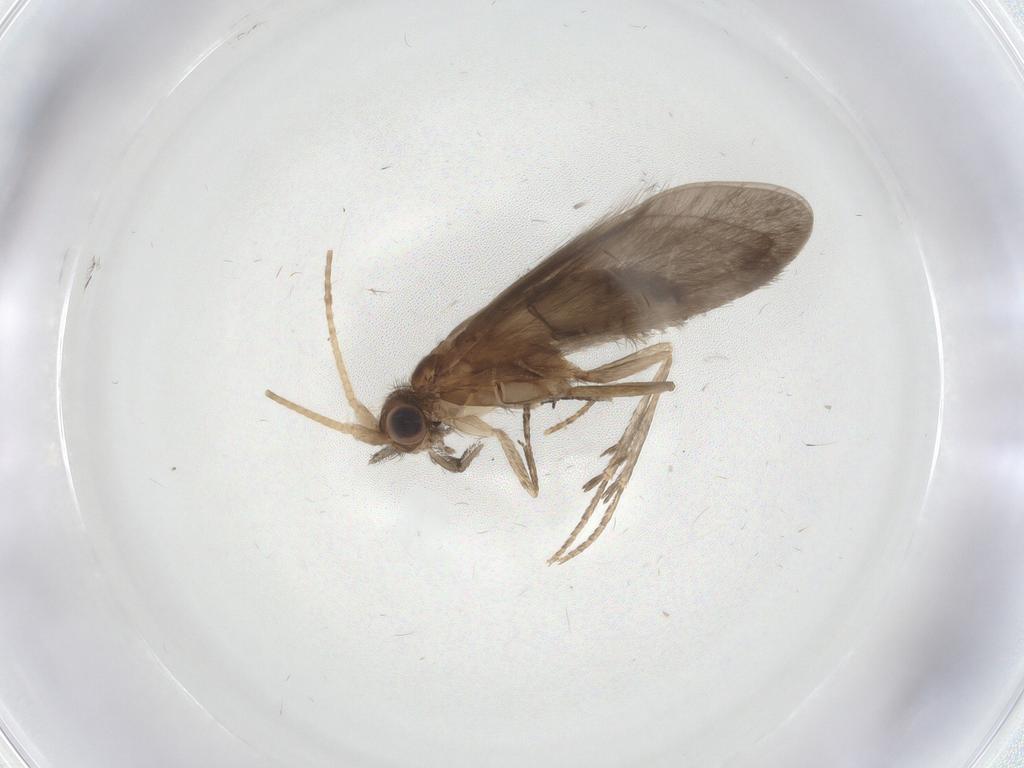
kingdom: Animalia
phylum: Arthropoda
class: Insecta
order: Trichoptera
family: Helicopsychidae
